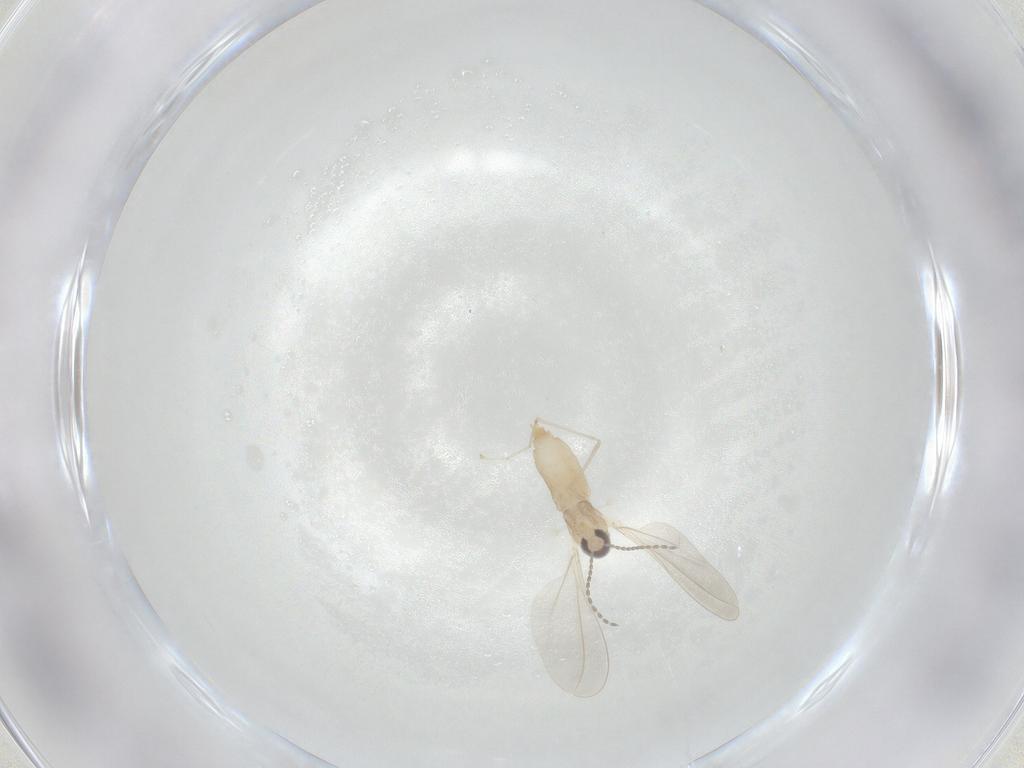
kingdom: Animalia
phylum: Arthropoda
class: Insecta
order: Diptera
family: Cecidomyiidae
